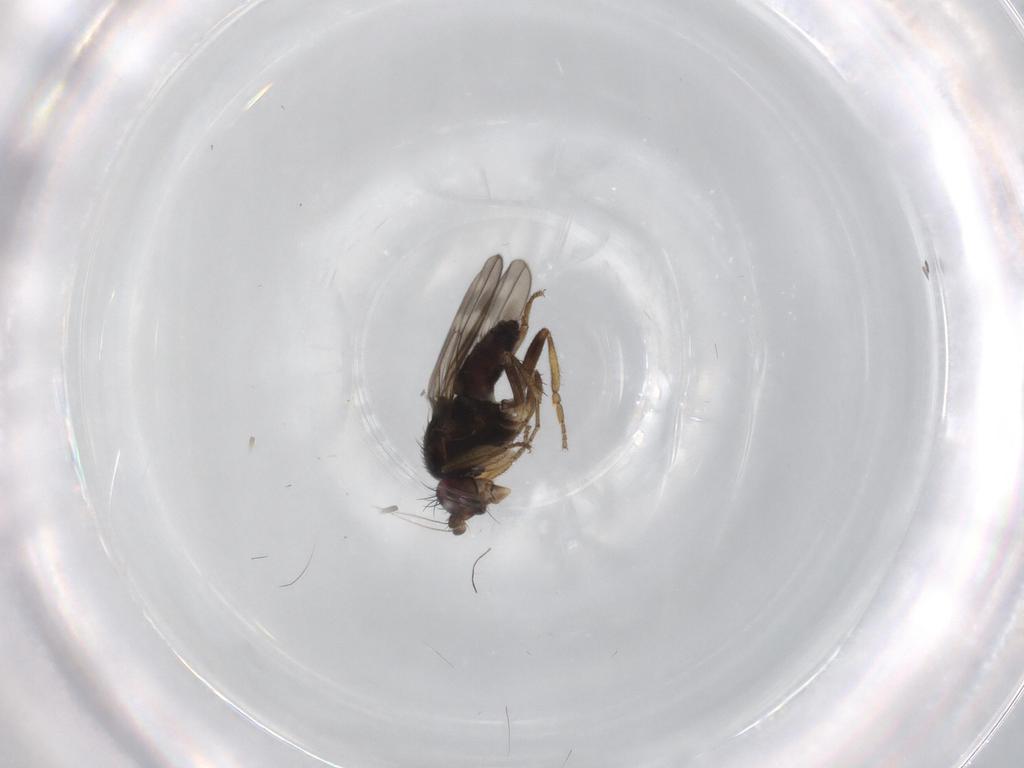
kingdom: Animalia
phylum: Arthropoda
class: Insecta
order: Diptera
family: Sphaeroceridae
